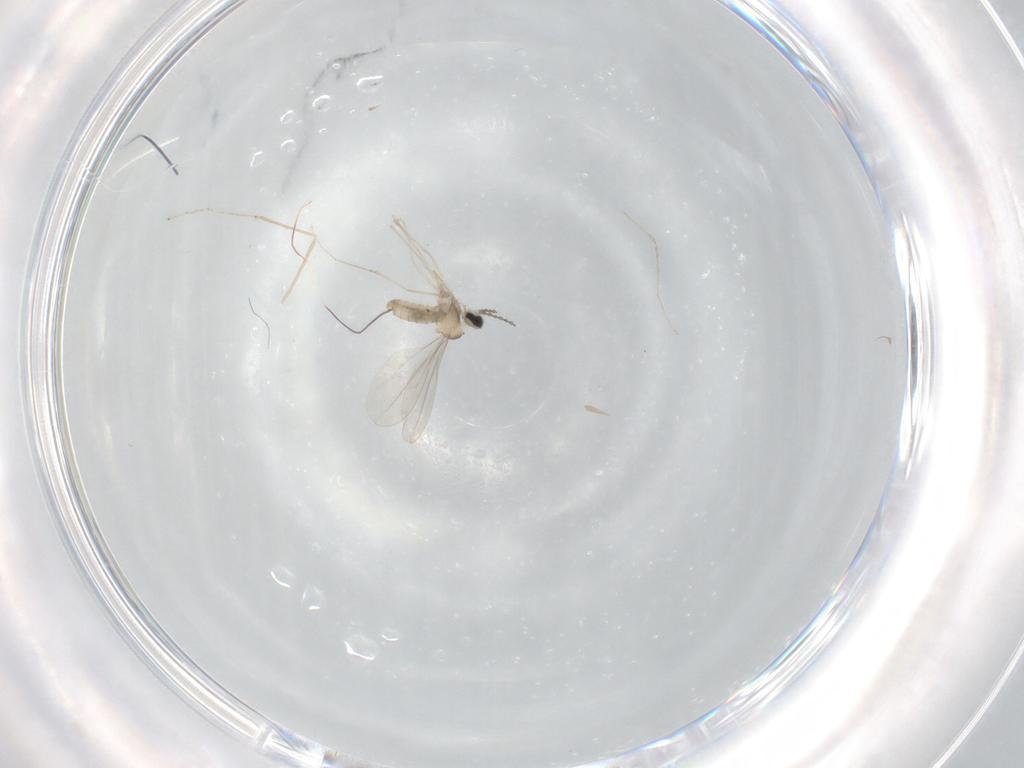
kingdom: Animalia
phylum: Arthropoda
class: Insecta
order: Diptera
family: Cecidomyiidae
